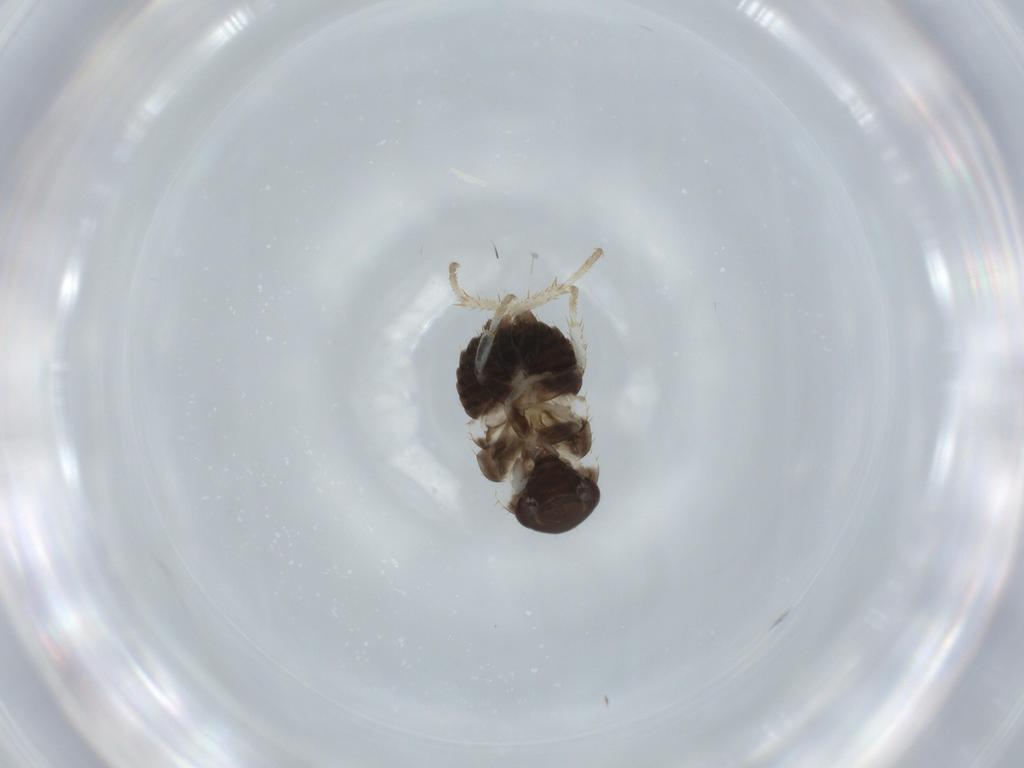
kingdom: Animalia
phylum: Arthropoda
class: Insecta
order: Blattodea
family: Ectobiidae
